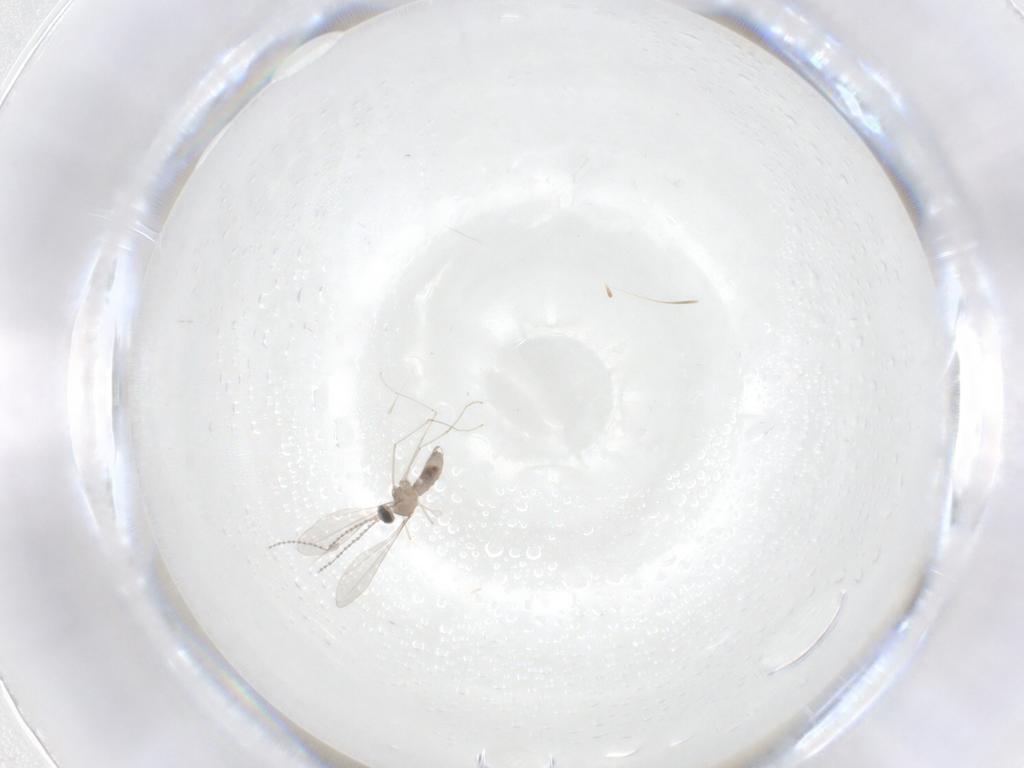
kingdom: Animalia
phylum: Arthropoda
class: Insecta
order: Diptera
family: Cecidomyiidae
